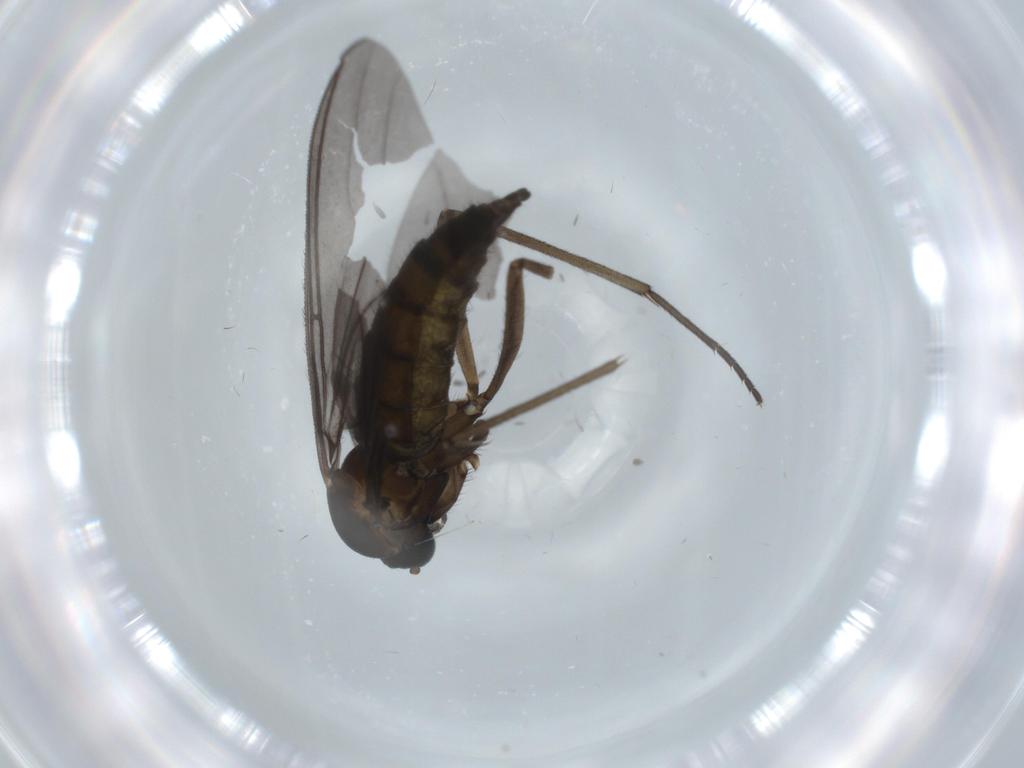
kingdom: Animalia
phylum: Arthropoda
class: Insecta
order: Diptera
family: Sciaridae
